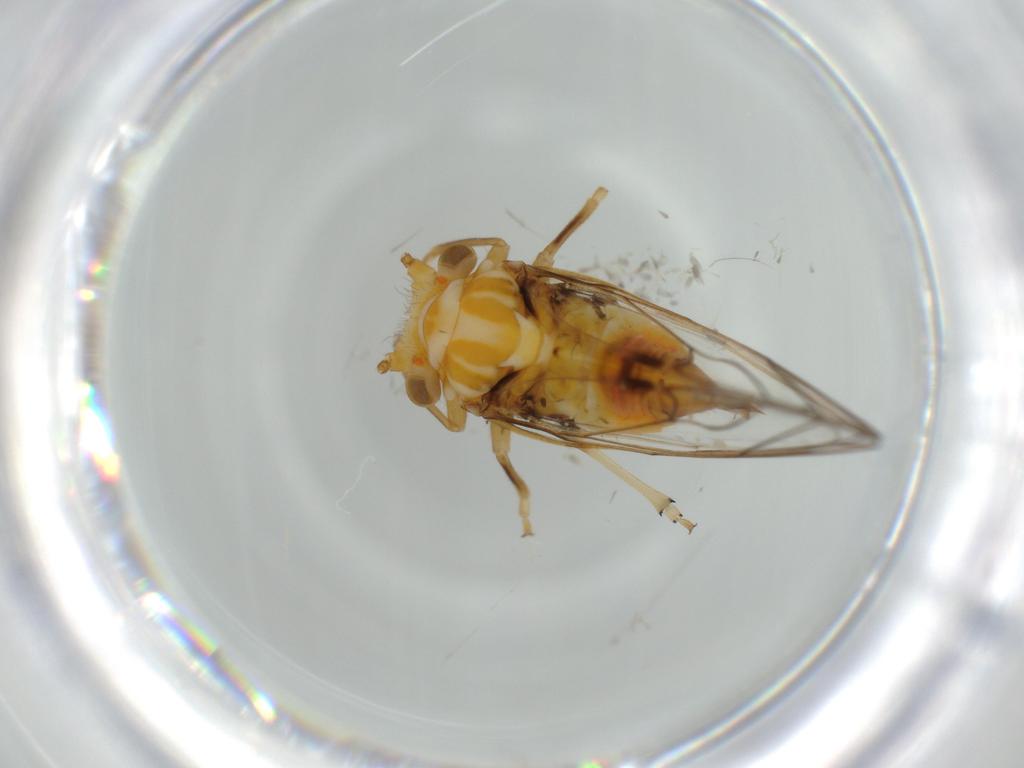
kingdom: Animalia
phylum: Arthropoda
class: Insecta
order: Hemiptera
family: Psyllidae
